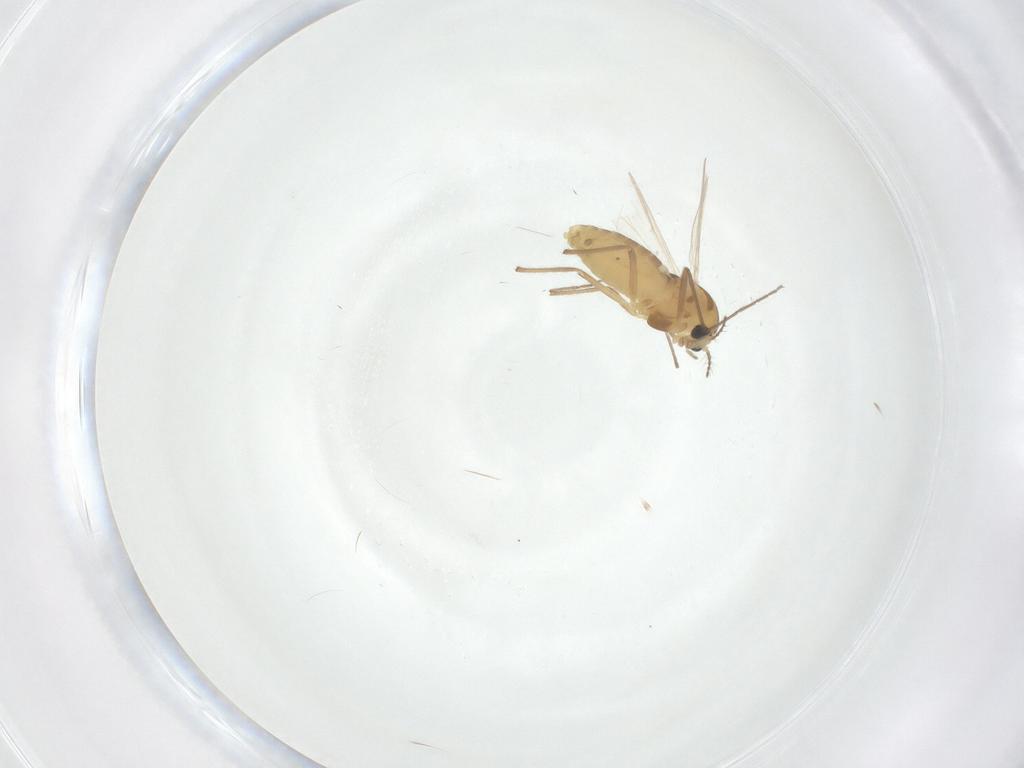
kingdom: Animalia
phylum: Arthropoda
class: Insecta
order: Diptera
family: Chironomidae
